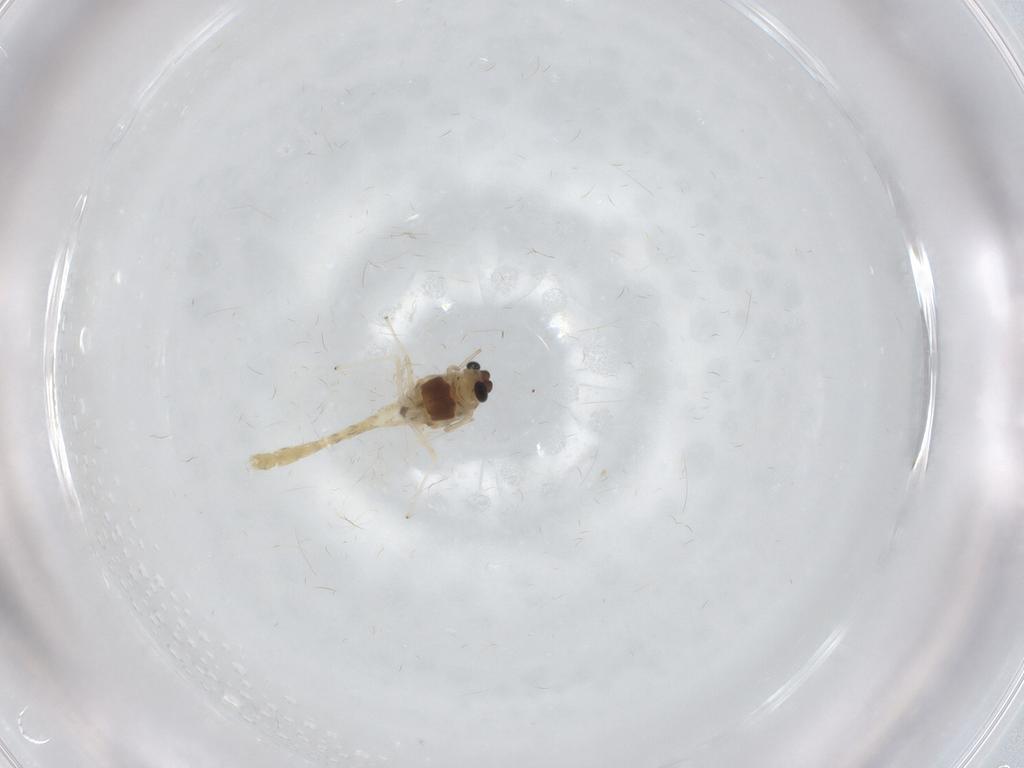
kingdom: Animalia
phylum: Arthropoda
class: Insecta
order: Diptera
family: Chironomidae
